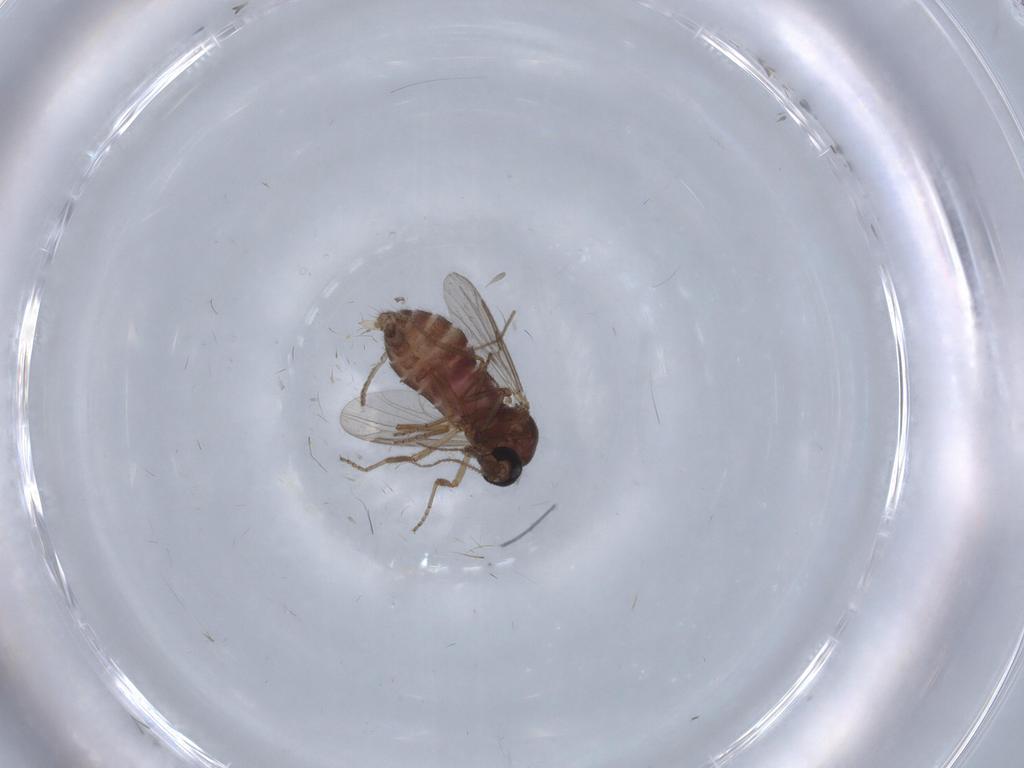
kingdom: Animalia
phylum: Arthropoda
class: Insecta
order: Diptera
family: Ceratopogonidae
